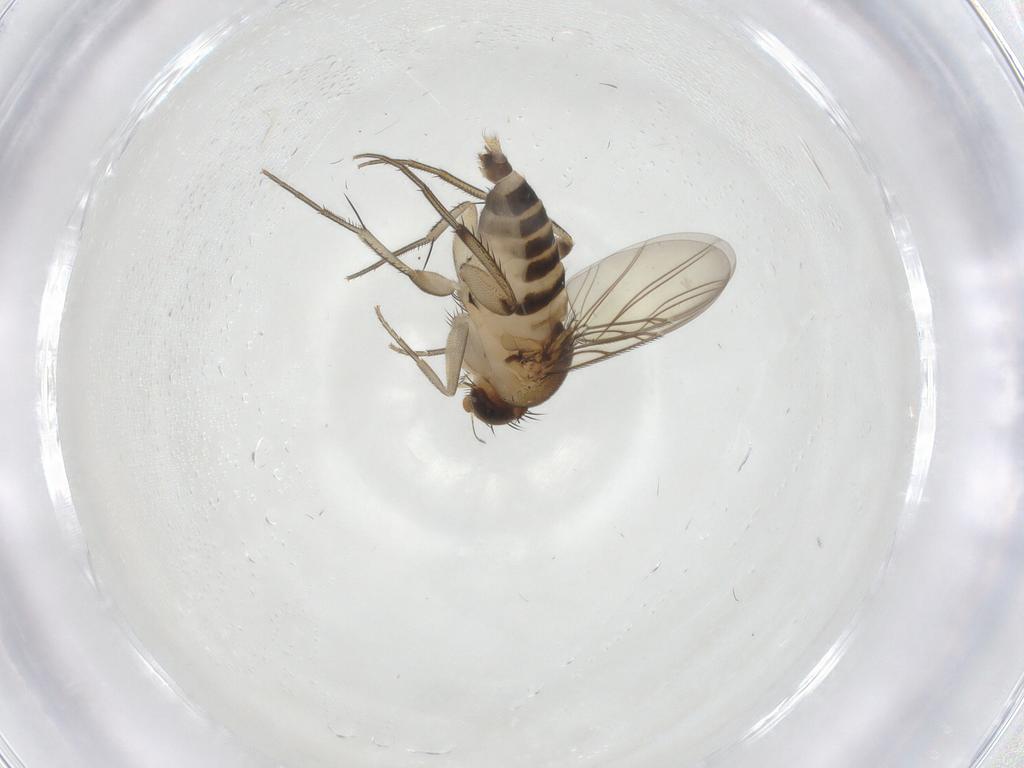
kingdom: Animalia
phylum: Arthropoda
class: Insecta
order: Diptera
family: Phoridae
